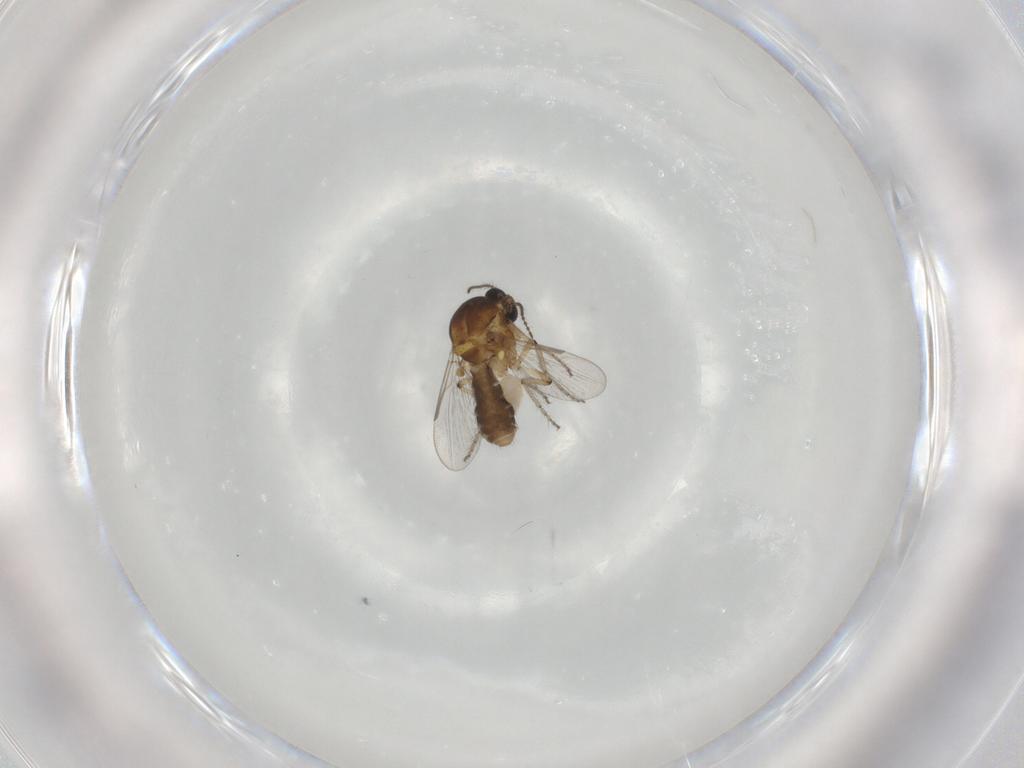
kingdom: Animalia
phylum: Arthropoda
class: Insecta
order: Diptera
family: Ceratopogonidae
